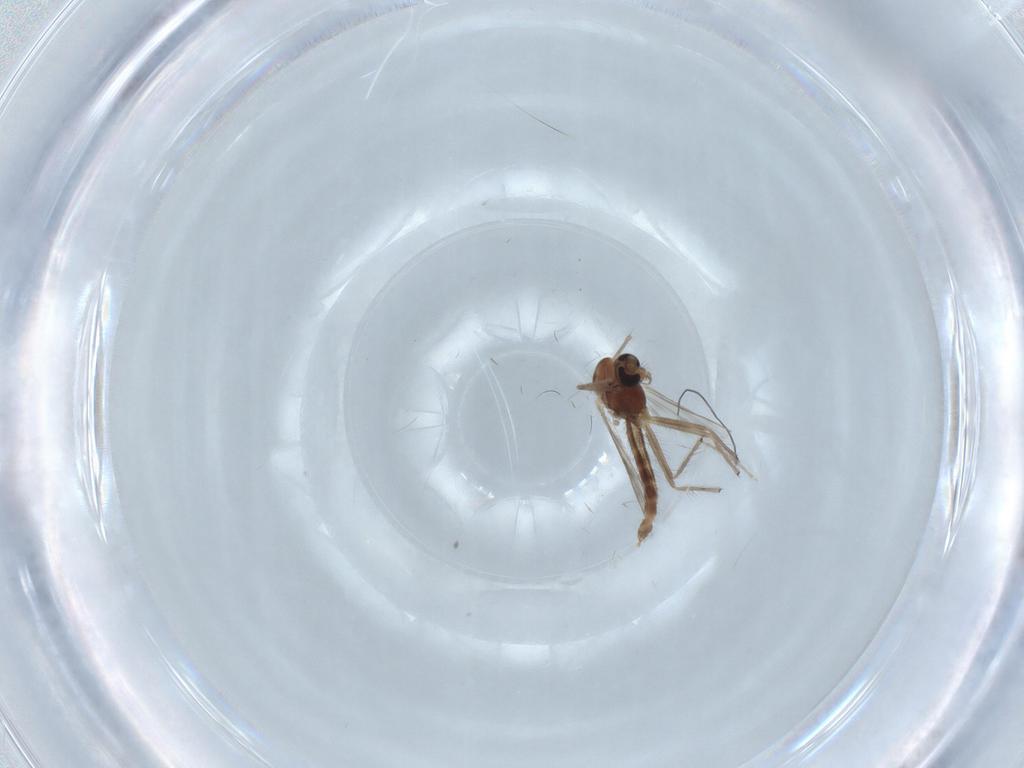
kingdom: Animalia
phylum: Arthropoda
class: Insecta
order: Diptera
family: Chironomidae
